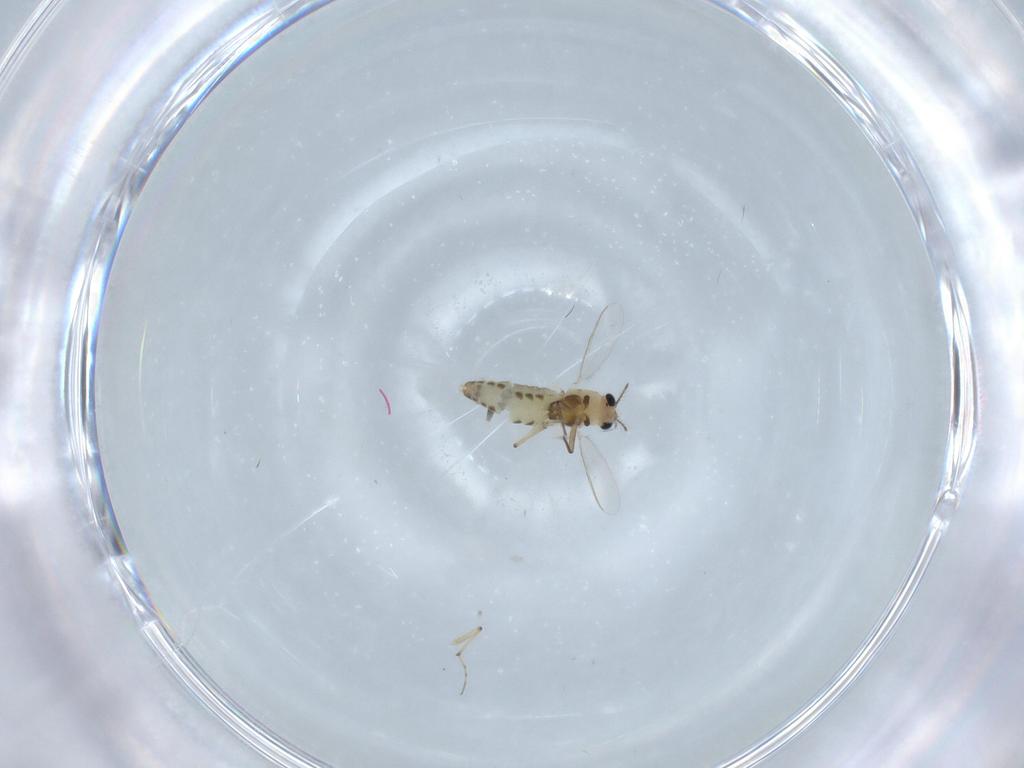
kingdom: Animalia
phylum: Arthropoda
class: Insecta
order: Diptera
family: Chironomidae
